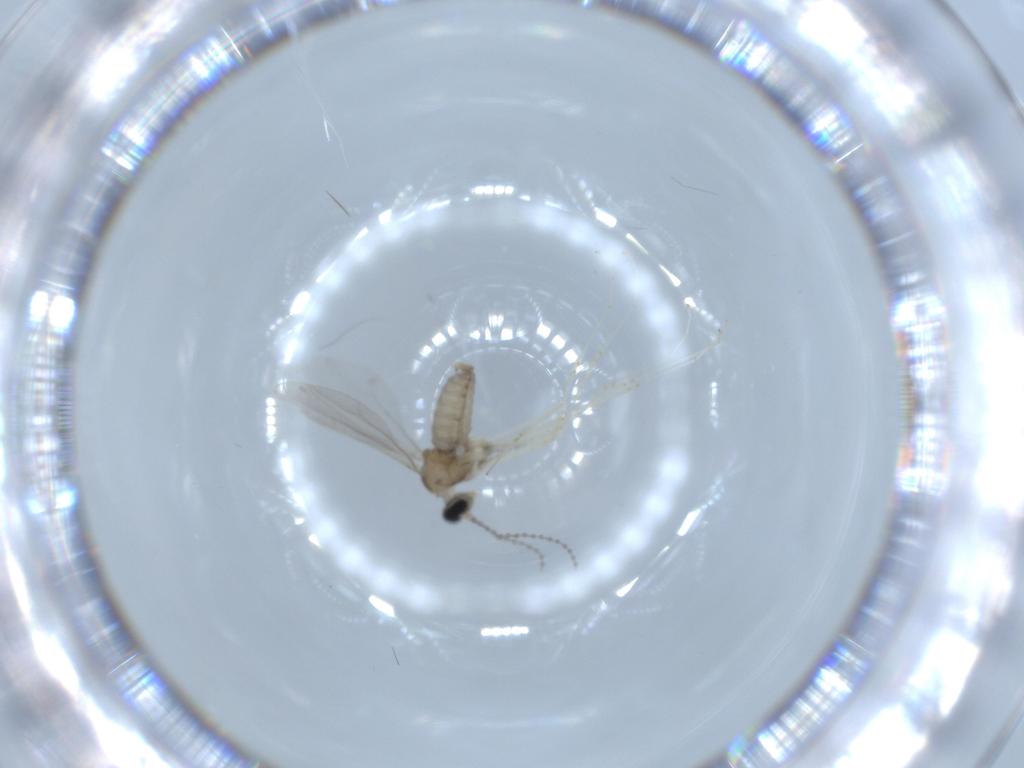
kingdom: Animalia
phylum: Arthropoda
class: Insecta
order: Diptera
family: Cecidomyiidae
